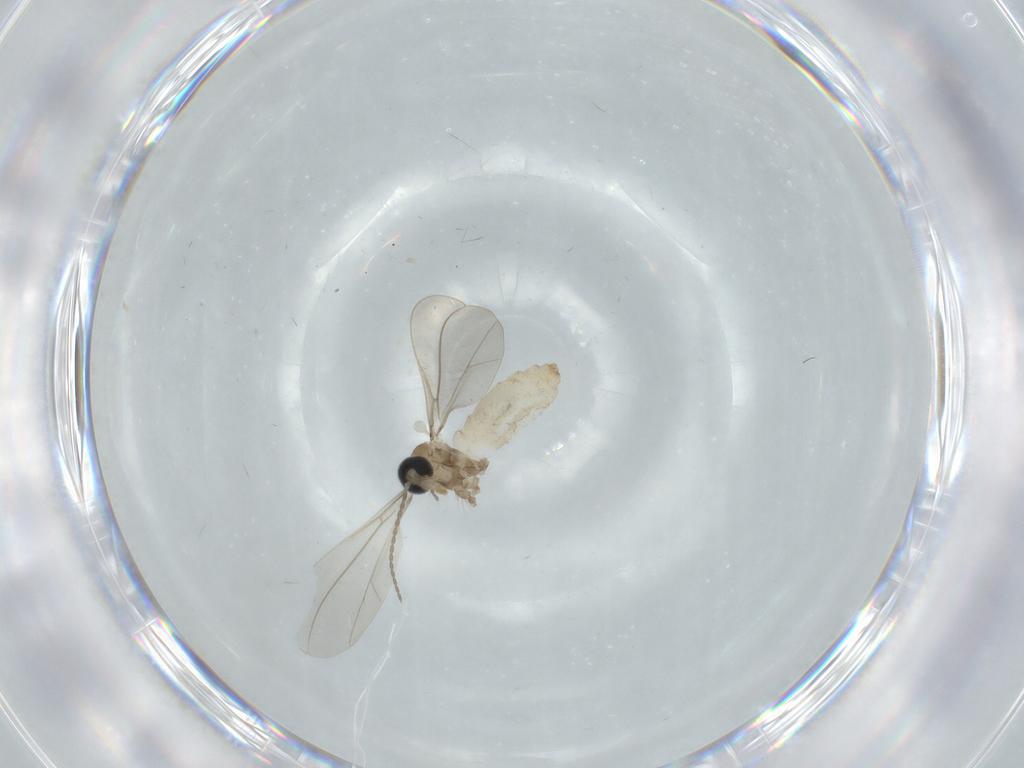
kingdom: Animalia
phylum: Arthropoda
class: Insecta
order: Diptera
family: Cecidomyiidae
